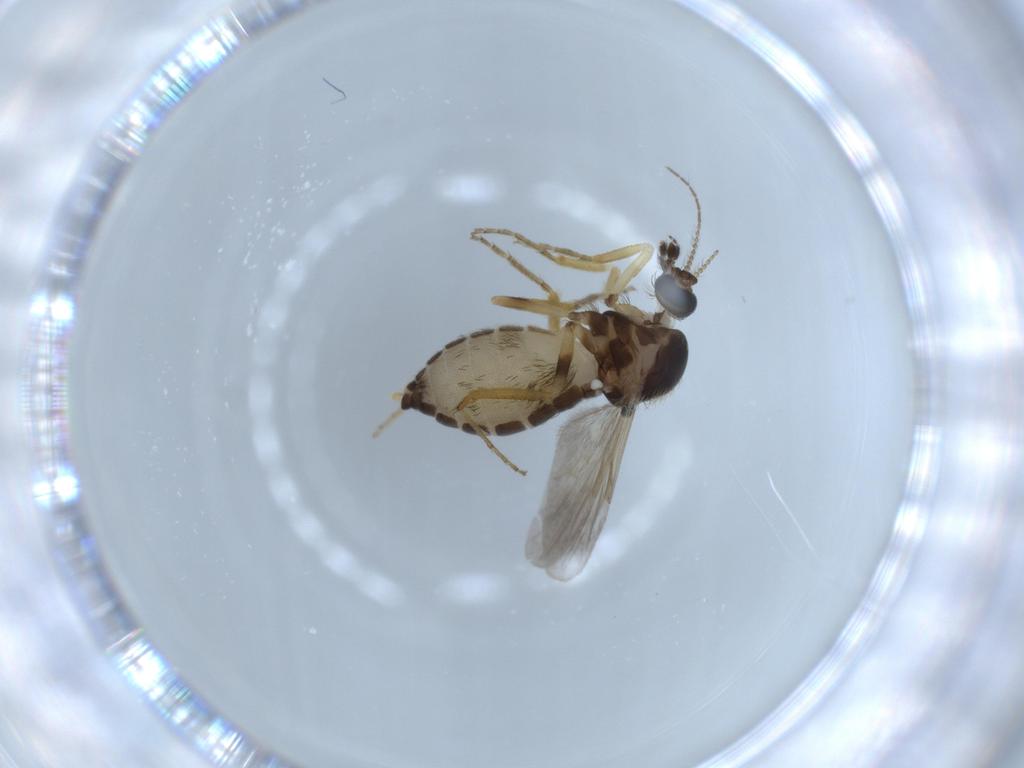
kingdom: Animalia
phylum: Arthropoda
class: Insecta
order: Diptera
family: Ceratopogonidae
